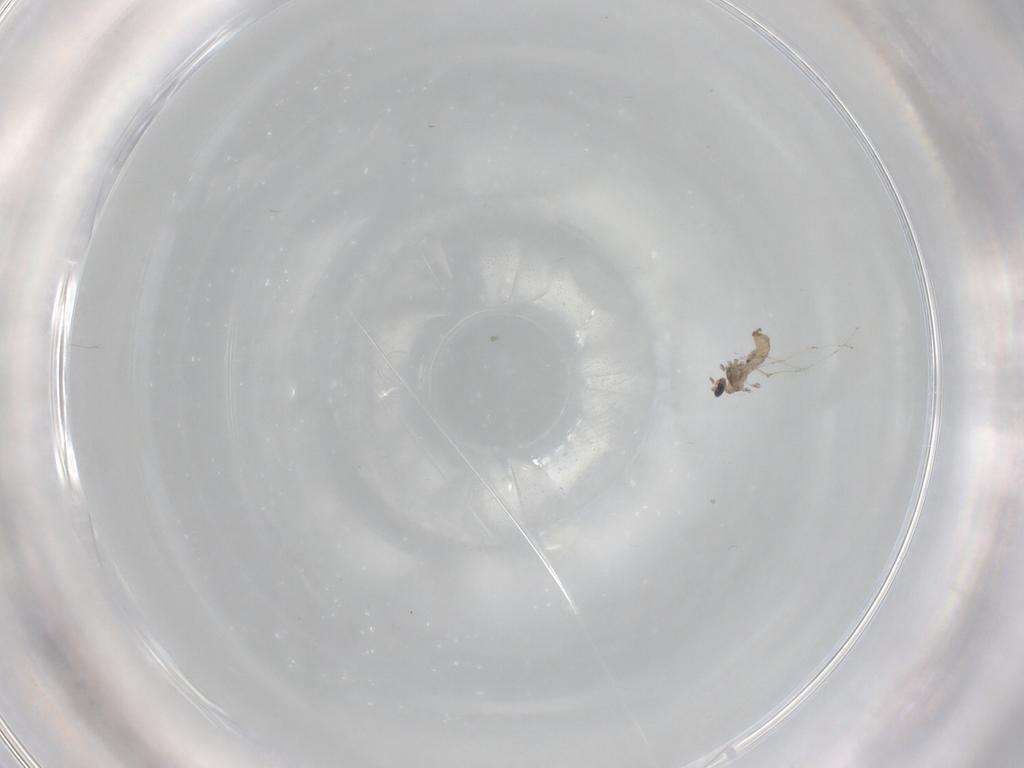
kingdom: Animalia
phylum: Arthropoda
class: Insecta
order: Diptera
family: Cecidomyiidae
